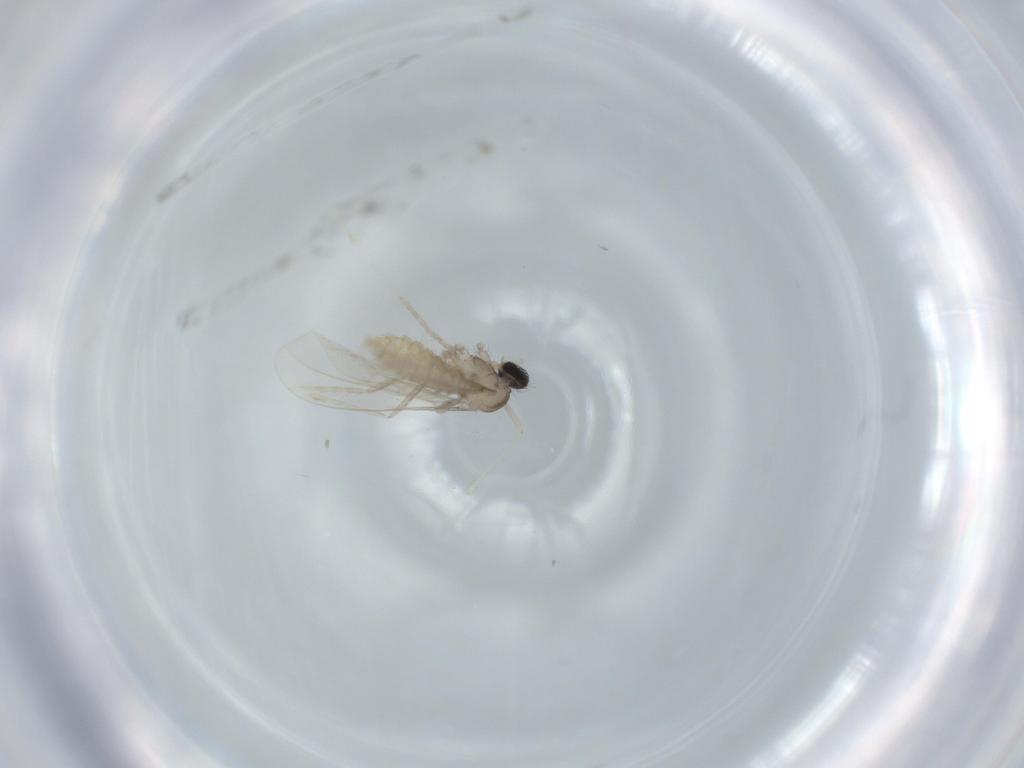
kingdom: Animalia
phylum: Arthropoda
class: Insecta
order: Diptera
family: Cecidomyiidae
